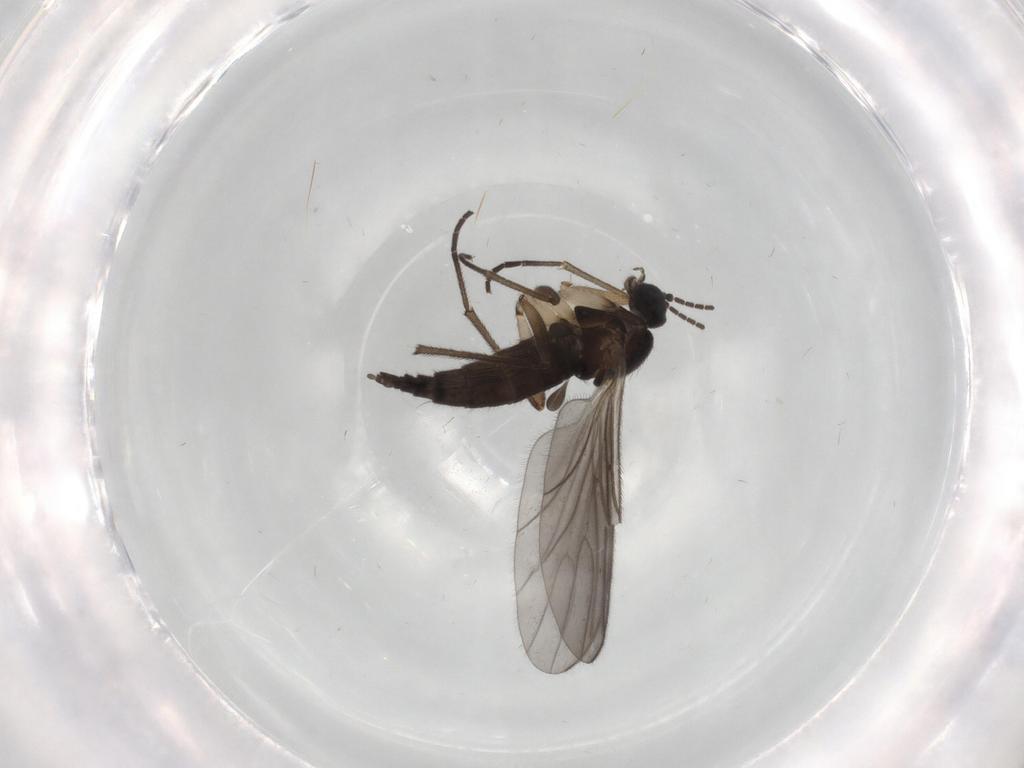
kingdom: Animalia
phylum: Arthropoda
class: Insecta
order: Diptera
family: Sciaridae
